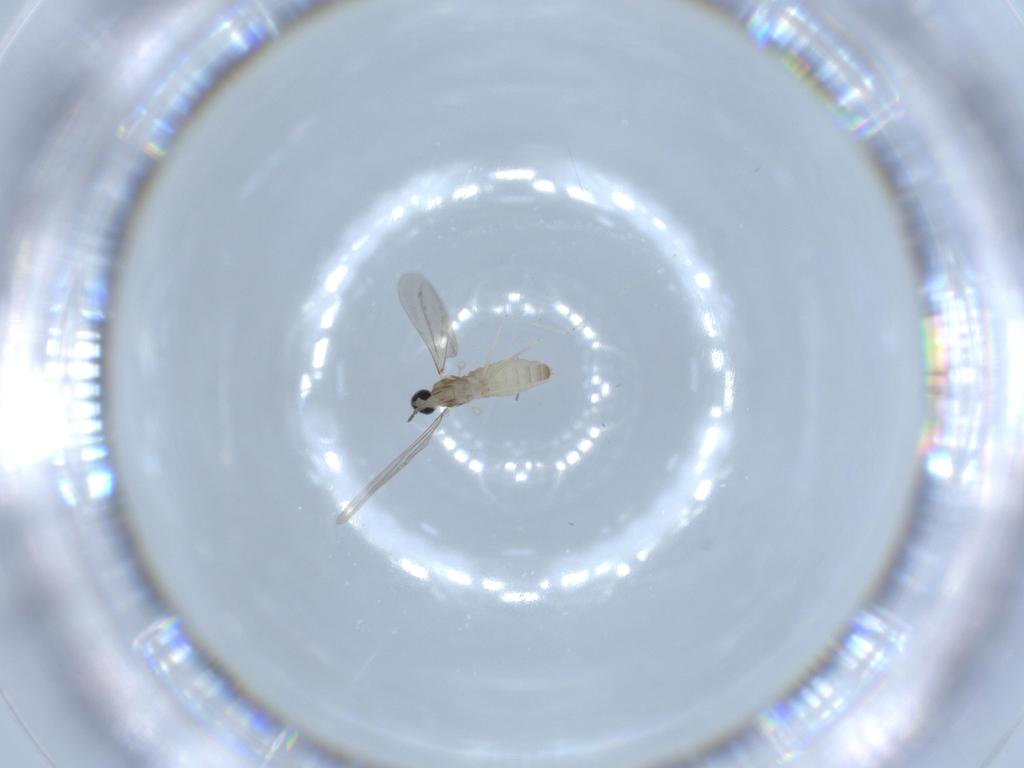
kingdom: Animalia
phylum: Arthropoda
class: Insecta
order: Diptera
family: Cecidomyiidae
